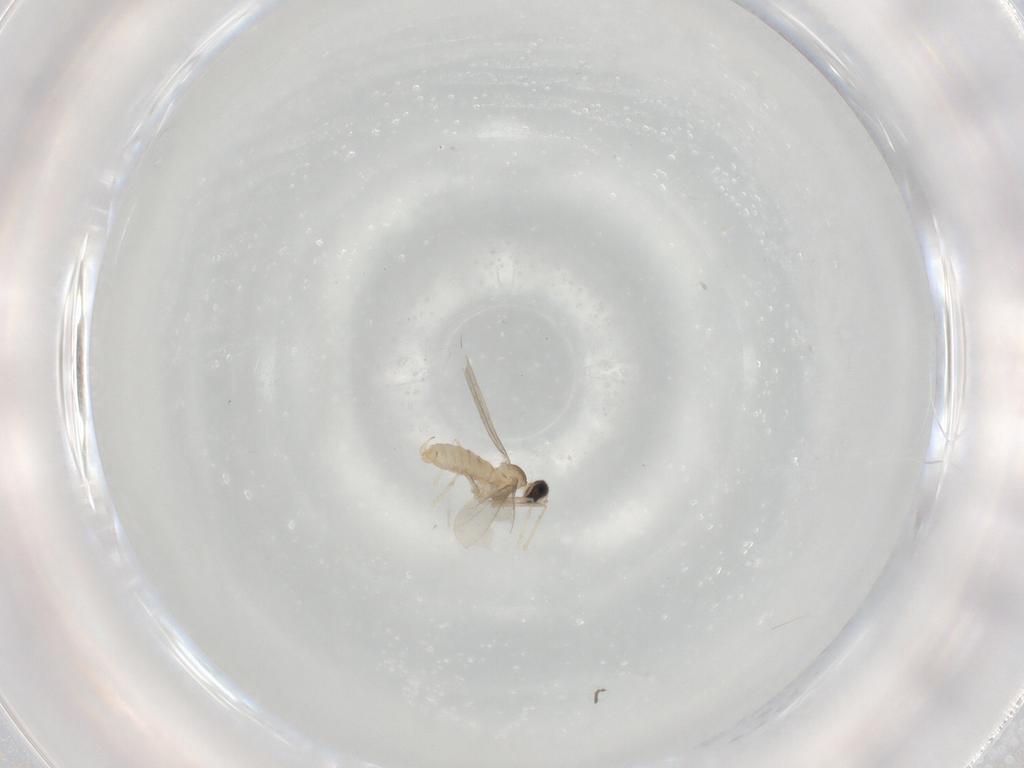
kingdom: Animalia
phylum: Arthropoda
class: Insecta
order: Diptera
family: Cecidomyiidae
